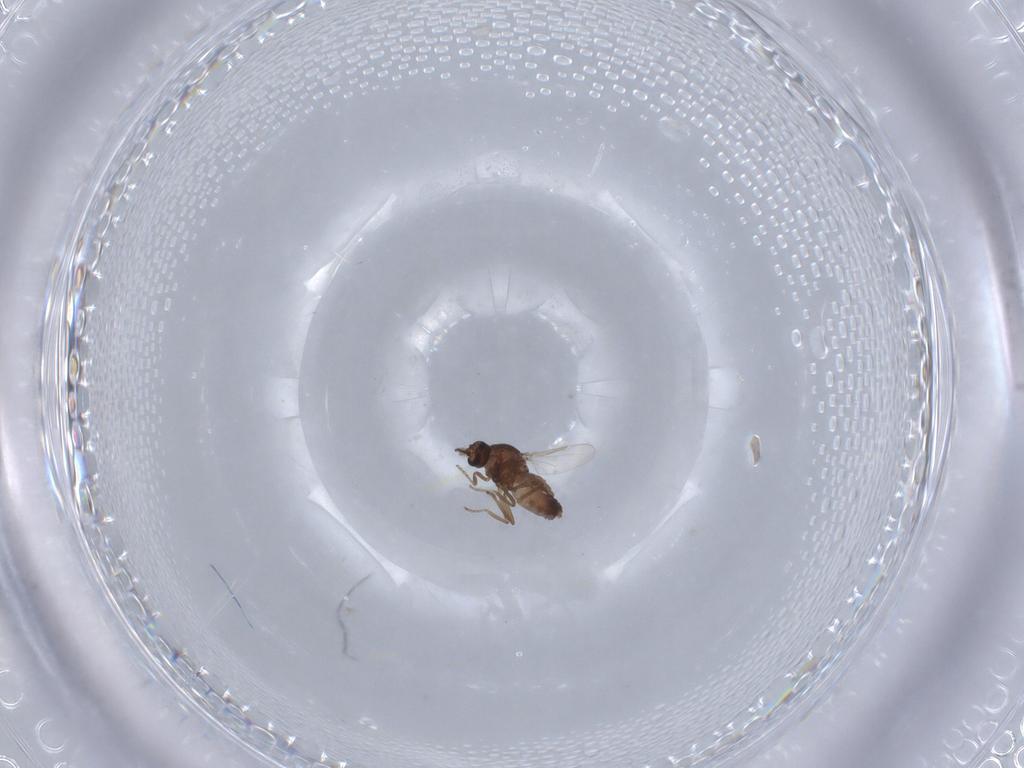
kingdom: Animalia
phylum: Arthropoda
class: Insecta
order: Diptera
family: Ceratopogonidae
